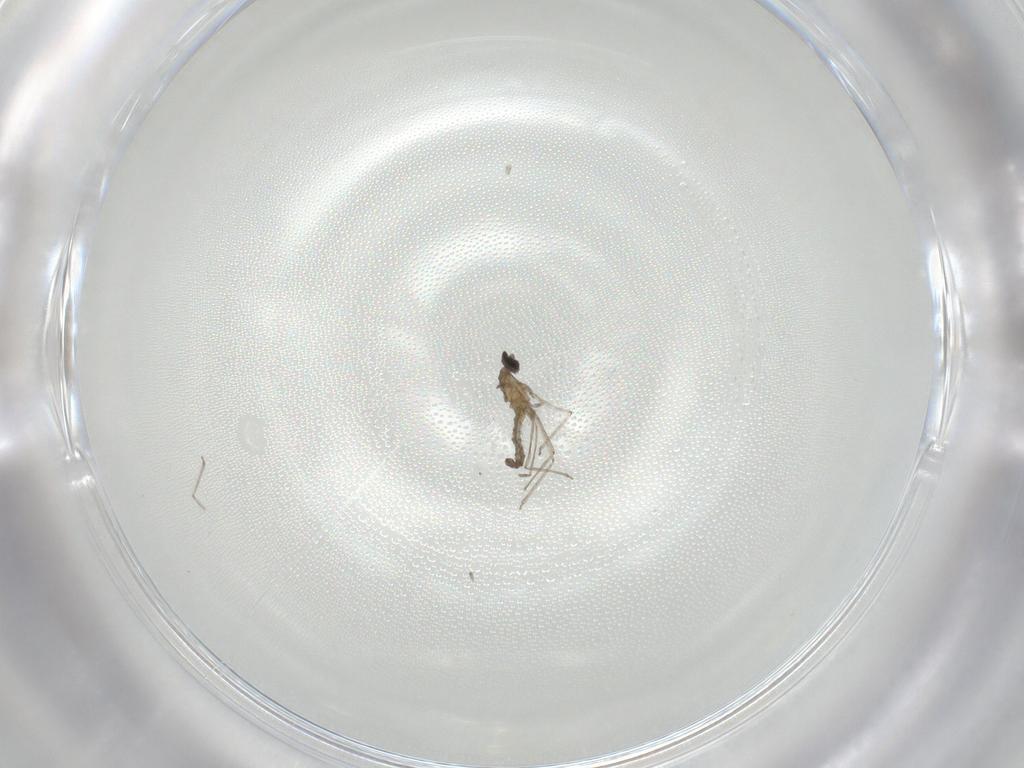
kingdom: Animalia
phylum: Arthropoda
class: Insecta
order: Diptera
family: Cecidomyiidae
